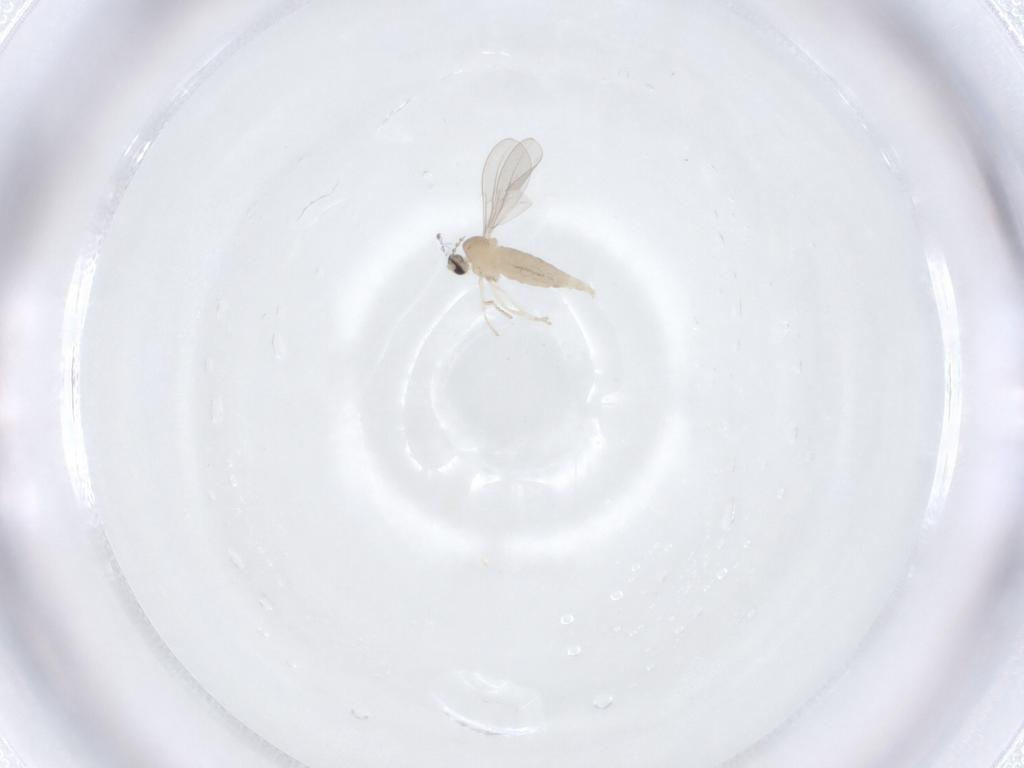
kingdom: Animalia
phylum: Arthropoda
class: Insecta
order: Diptera
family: Cecidomyiidae
